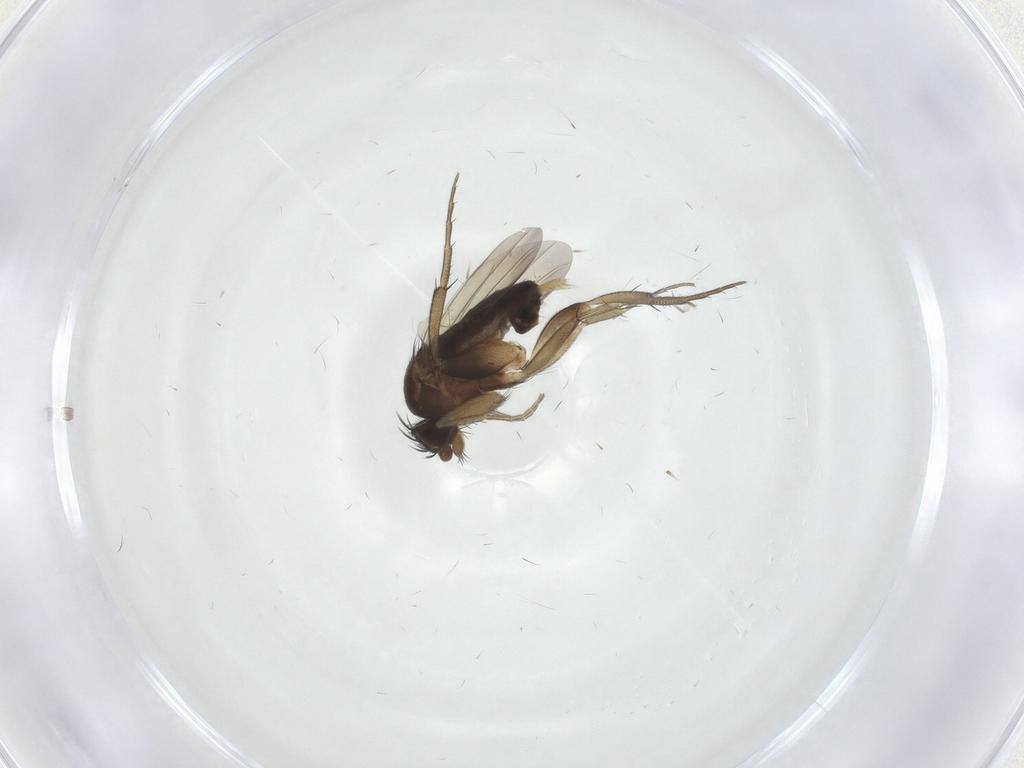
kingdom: Animalia
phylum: Arthropoda
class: Insecta
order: Diptera
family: Phoridae
